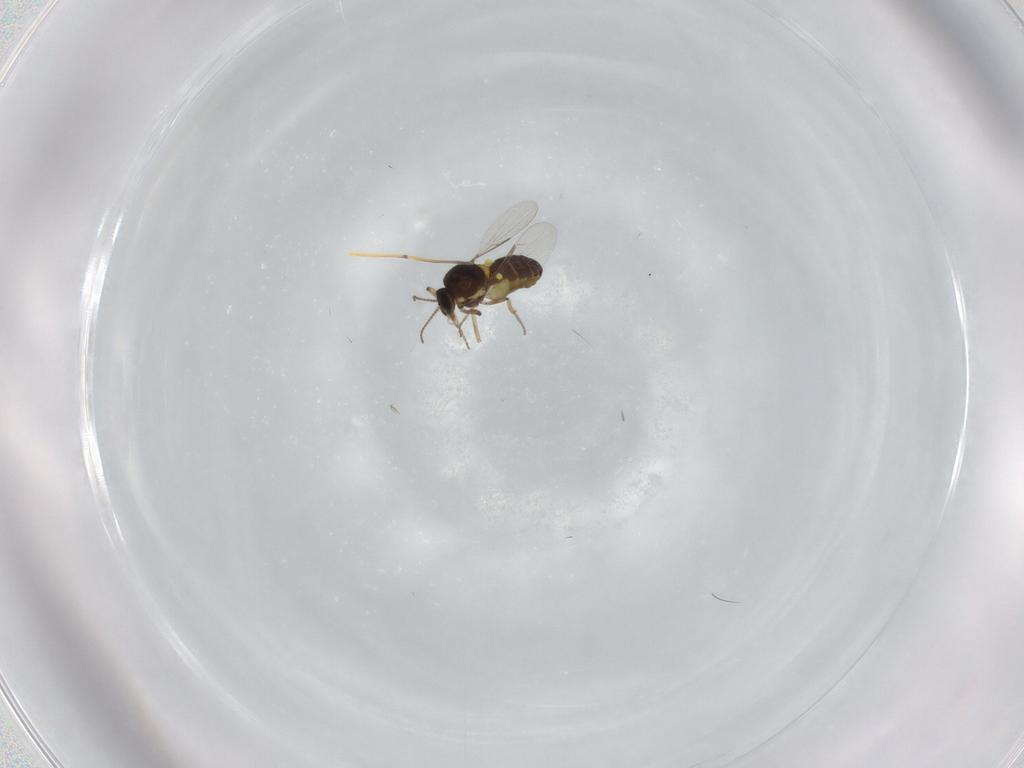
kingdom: Animalia
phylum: Arthropoda
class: Insecta
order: Diptera
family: Ceratopogonidae
